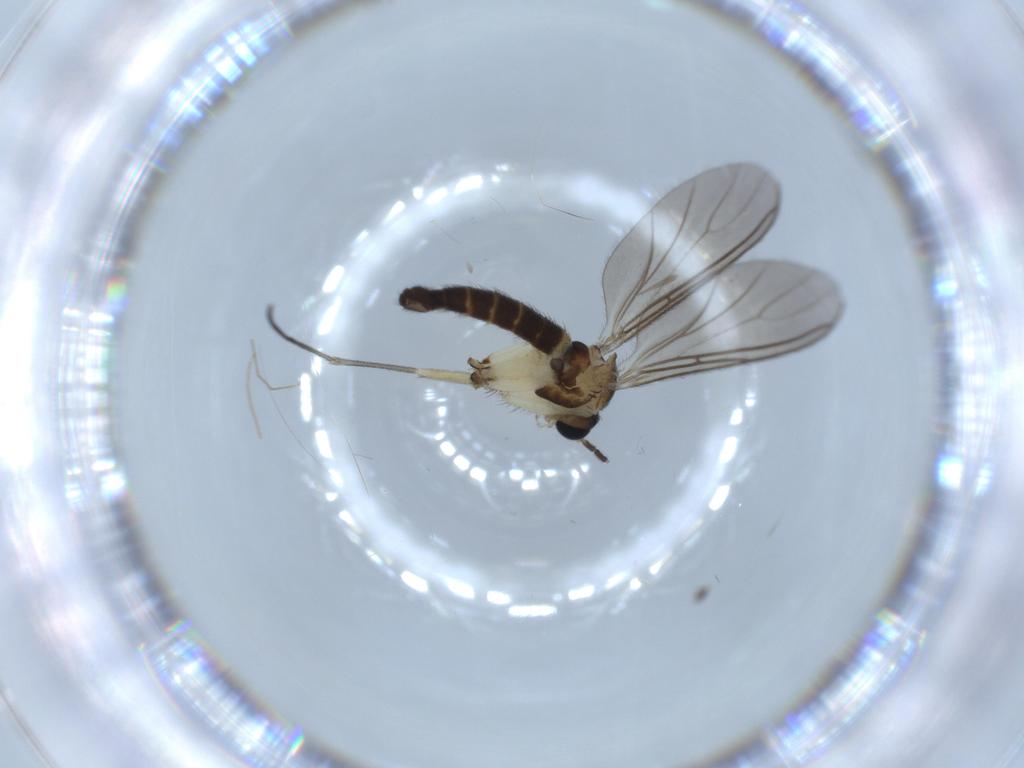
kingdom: Animalia
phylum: Arthropoda
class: Insecta
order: Diptera
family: Sciaridae
